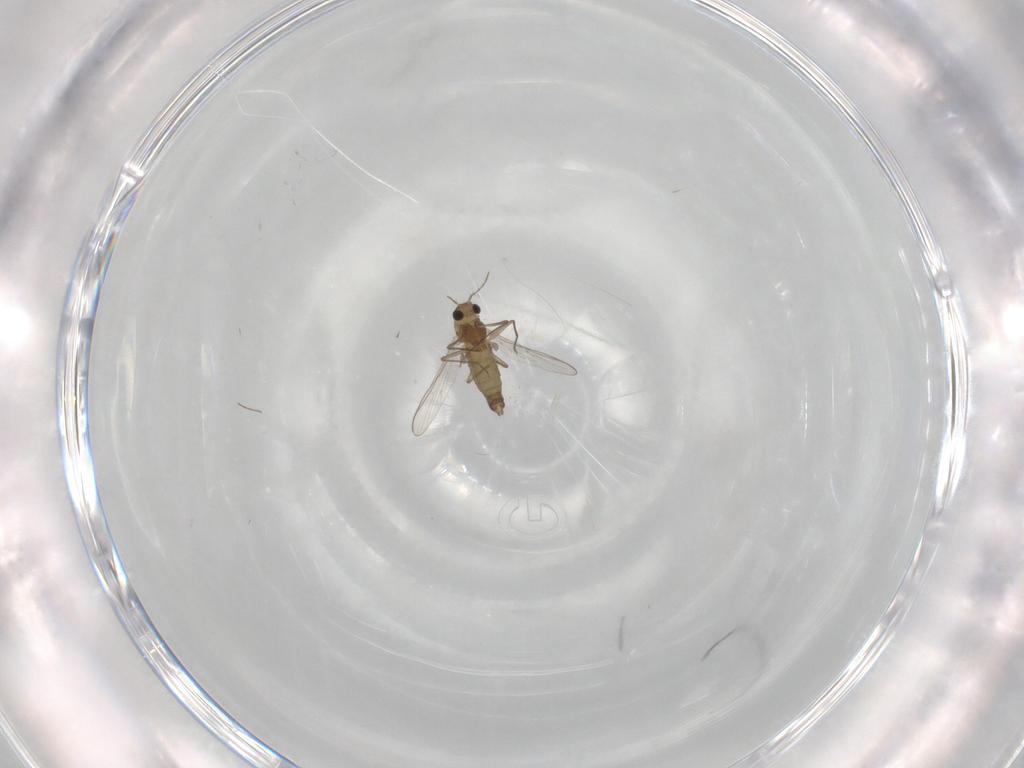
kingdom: Animalia
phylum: Arthropoda
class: Insecta
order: Diptera
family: Chironomidae
